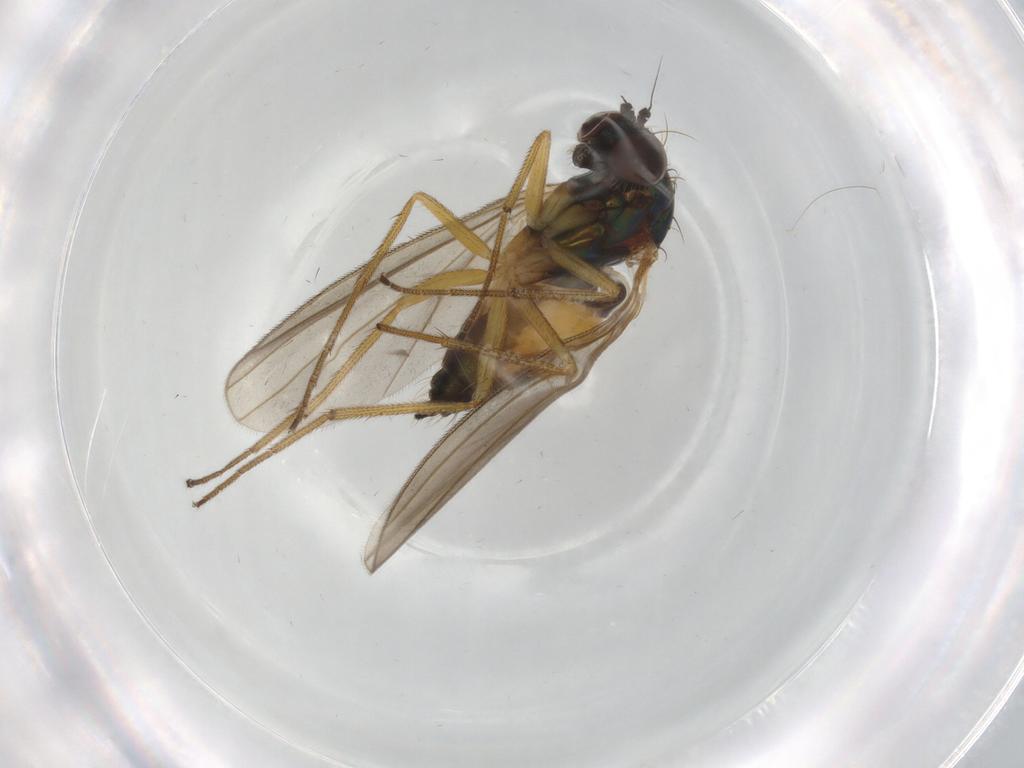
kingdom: Animalia
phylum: Arthropoda
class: Insecta
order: Diptera
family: Dolichopodidae
